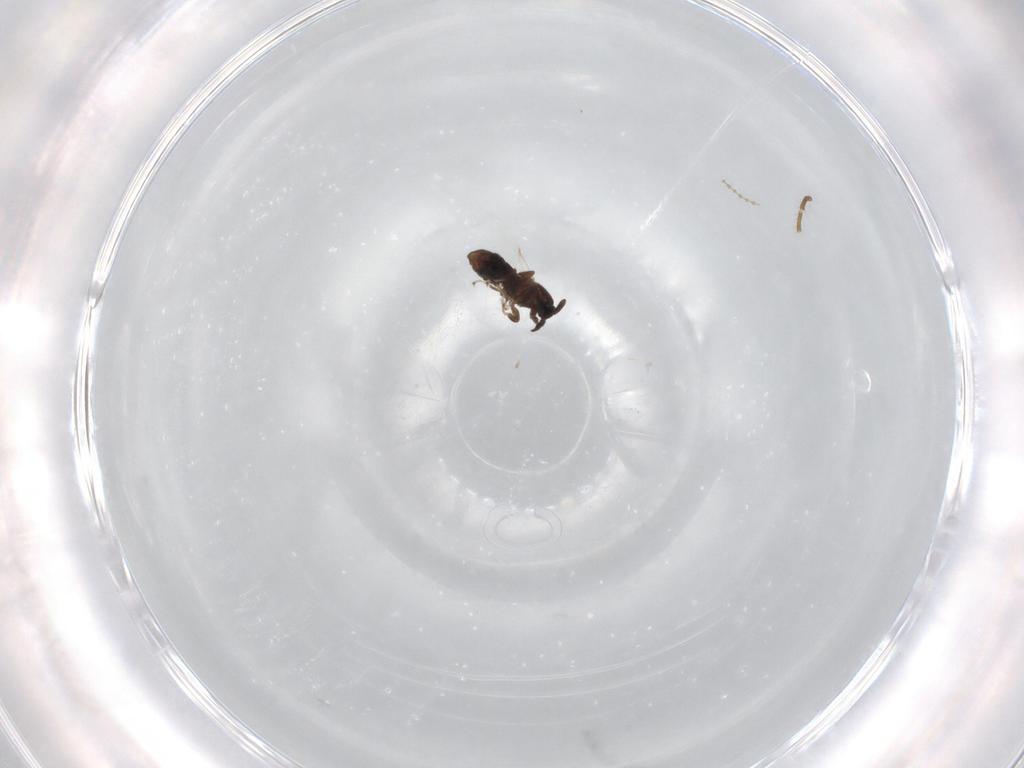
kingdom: Animalia
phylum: Arthropoda
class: Insecta
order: Diptera
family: Scatopsidae
